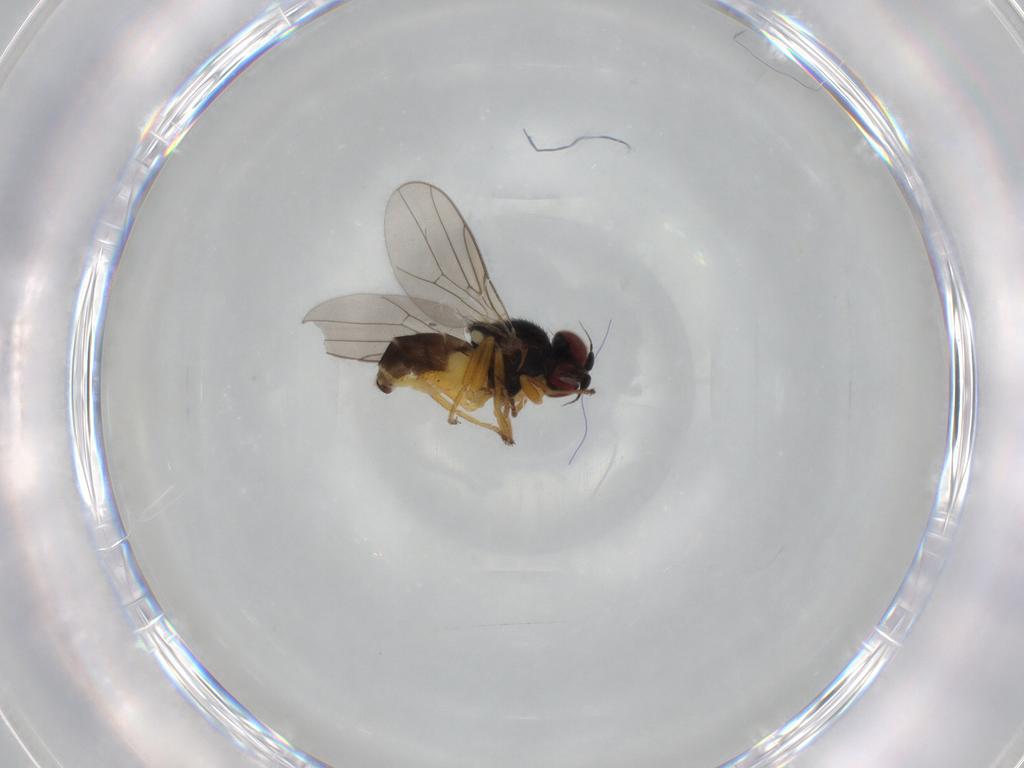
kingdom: Animalia
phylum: Arthropoda
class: Insecta
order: Diptera
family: Chloropidae
